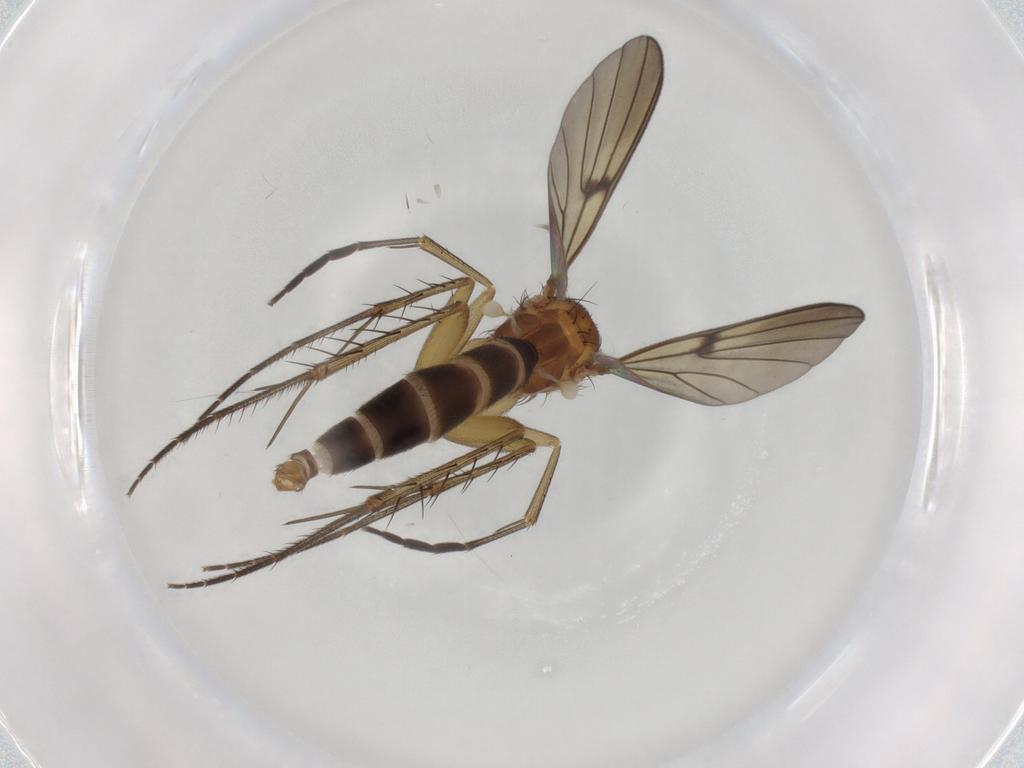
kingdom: Animalia
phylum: Arthropoda
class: Insecta
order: Diptera
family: Mycetophilidae
